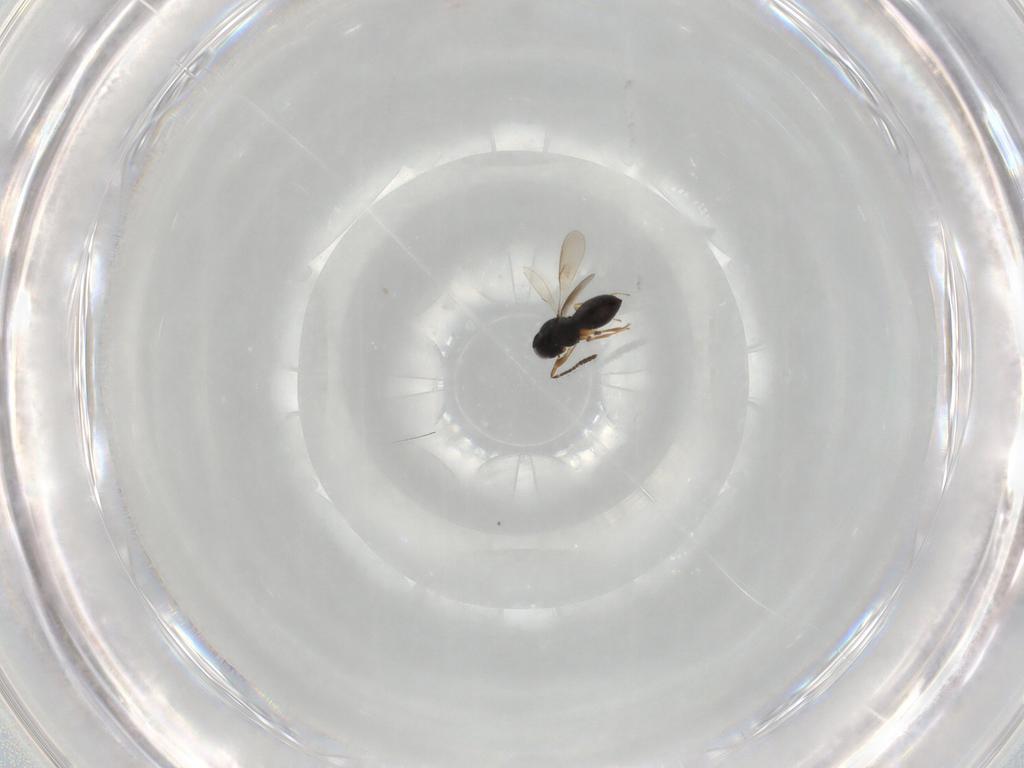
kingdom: Animalia
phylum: Arthropoda
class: Insecta
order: Hymenoptera
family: Scelionidae
